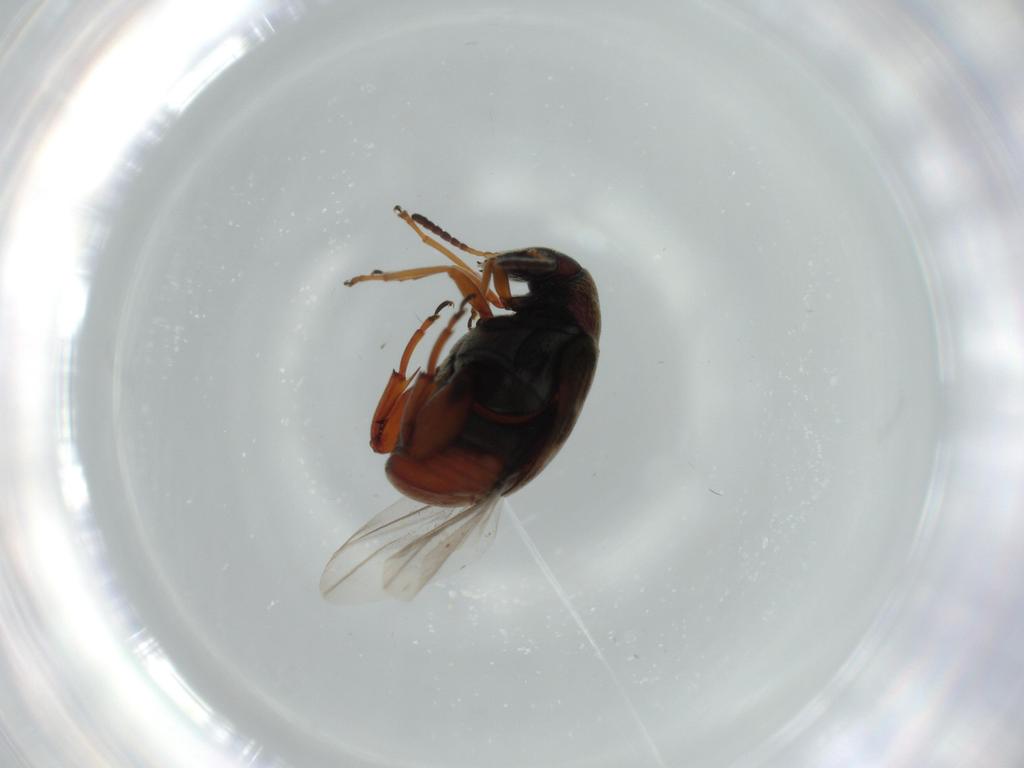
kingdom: Animalia
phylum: Arthropoda
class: Insecta
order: Coleoptera
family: Chrysomelidae
